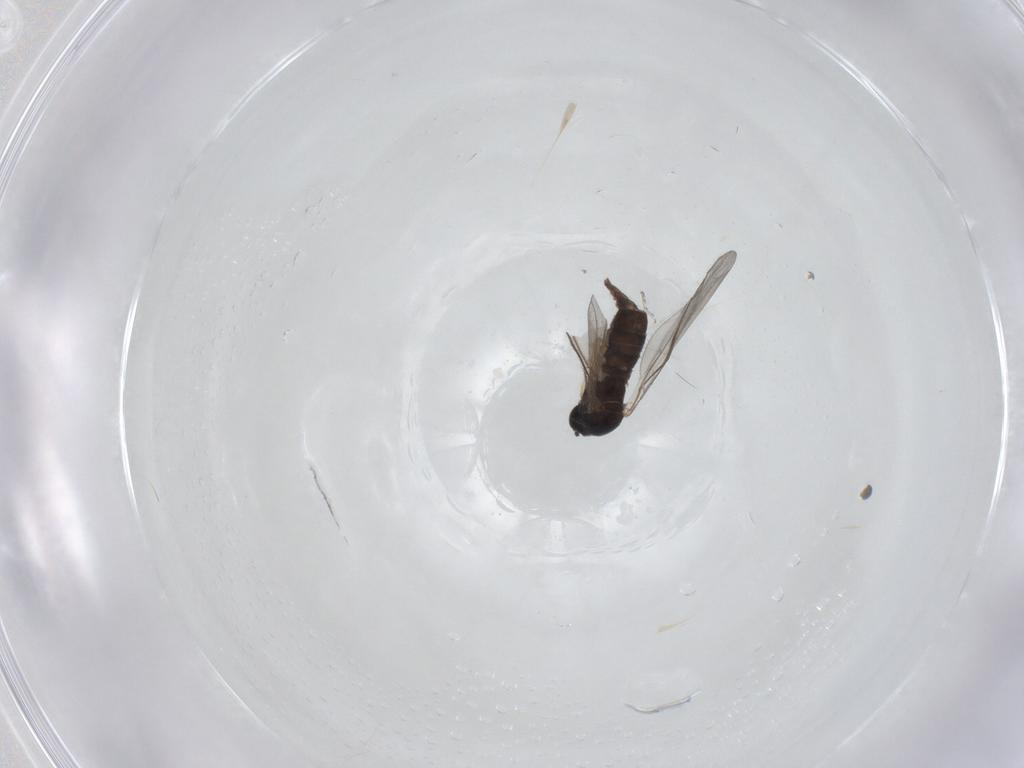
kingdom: Animalia
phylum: Arthropoda
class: Insecta
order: Diptera
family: Sciaridae
